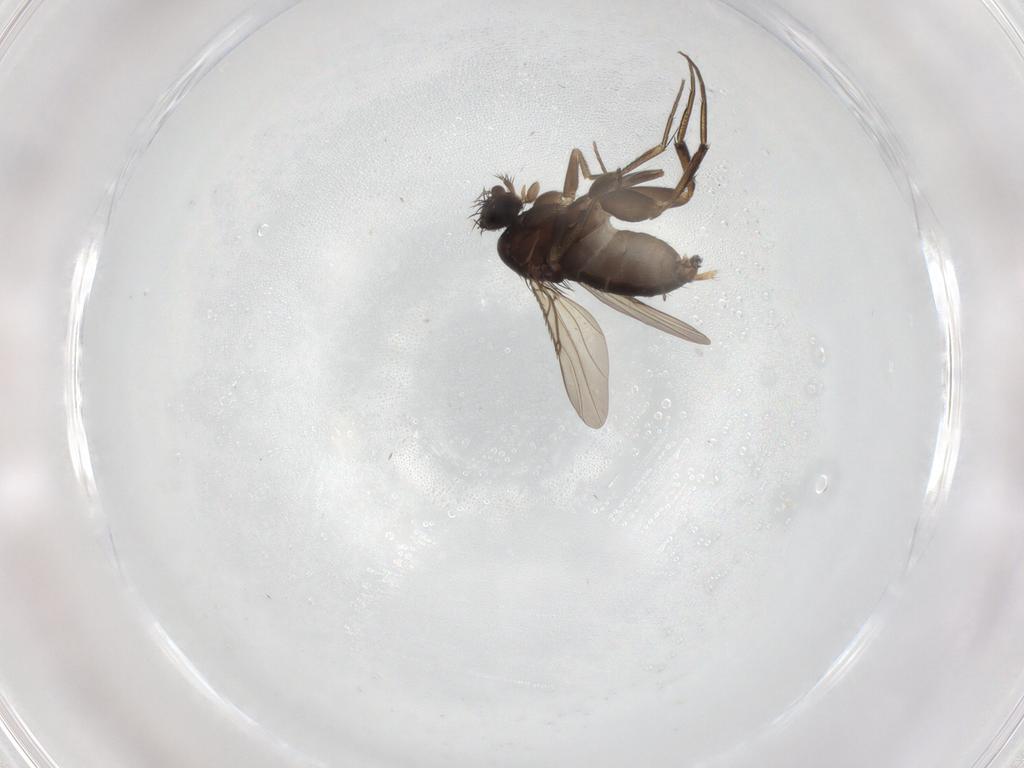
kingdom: Animalia
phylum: Arthropoda
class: Insecta
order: Diptera
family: Phoridae
